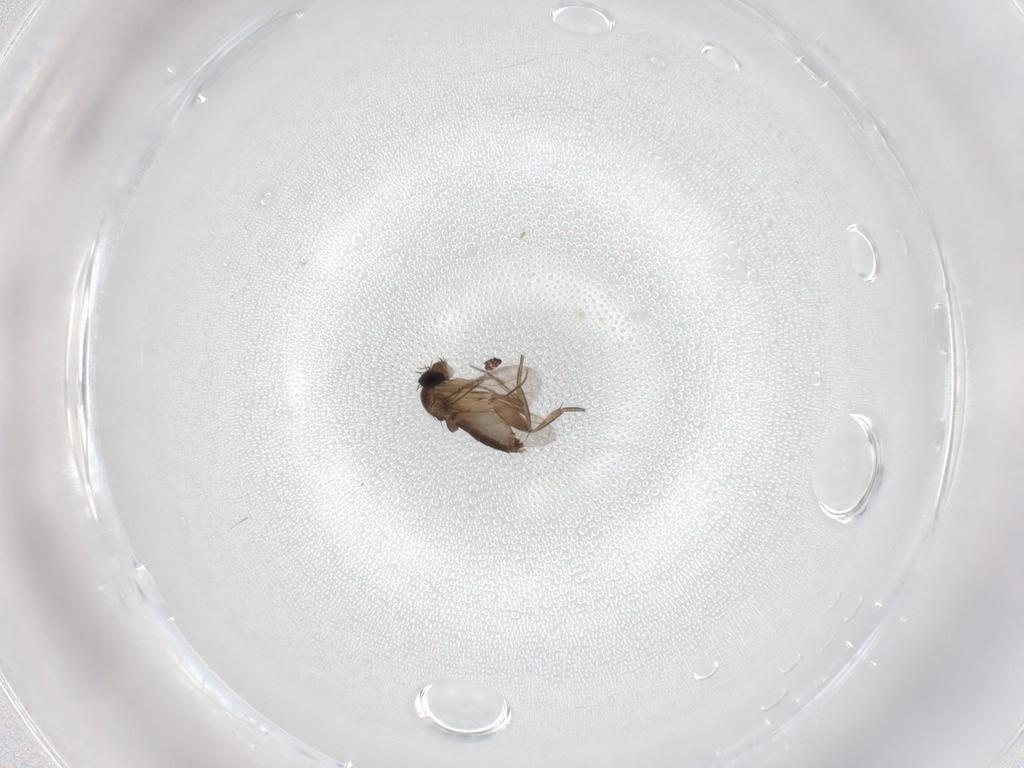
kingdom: Animalia
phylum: Arthropoda
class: Insecta
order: Diptera
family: Phoridae
